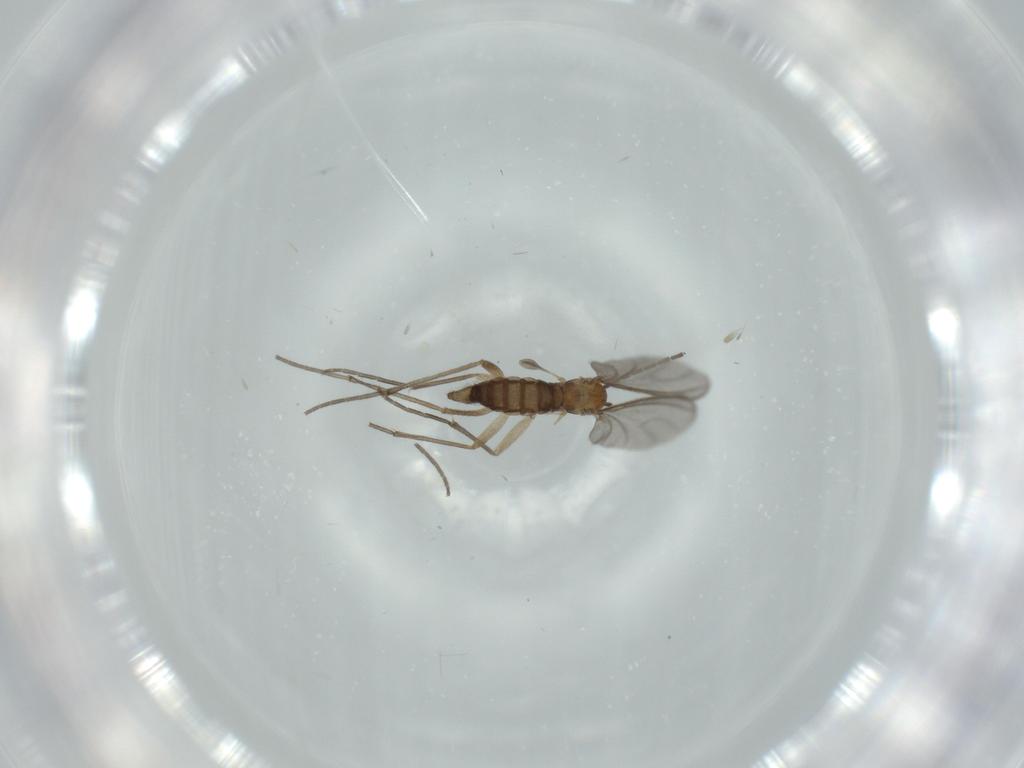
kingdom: Animalia
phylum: Arthropoda
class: Insecta
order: Diptera
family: Sciaridae
